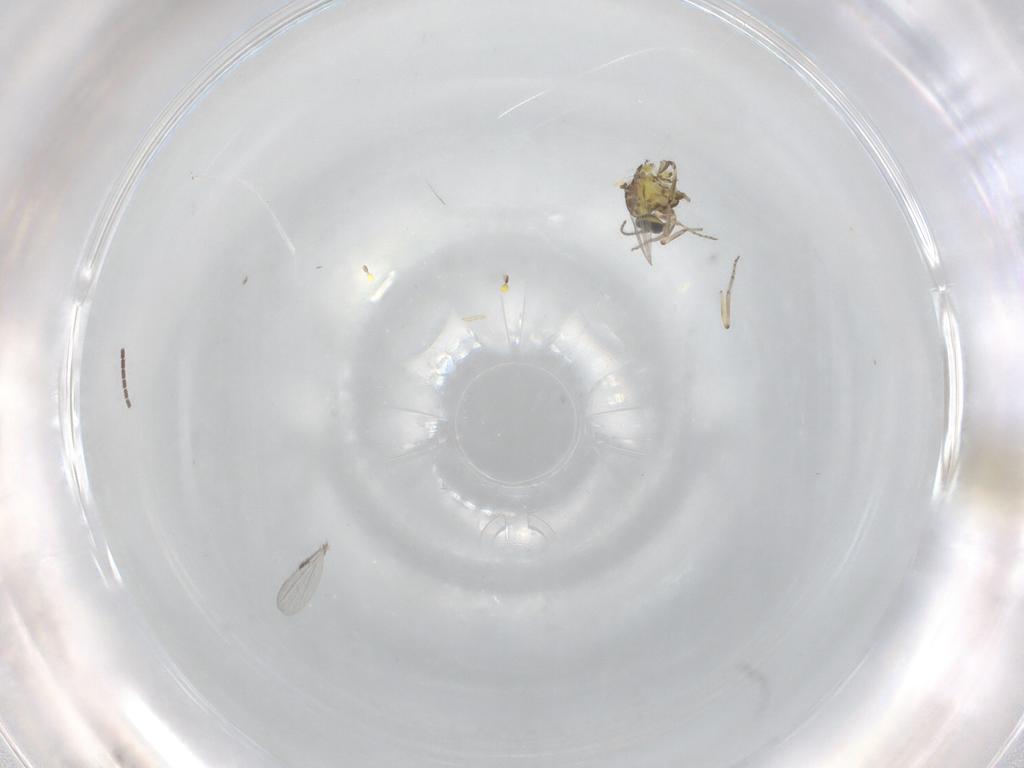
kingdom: Animalia
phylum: Arthropoda
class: Insecta
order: Diptera
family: Sciaridae
